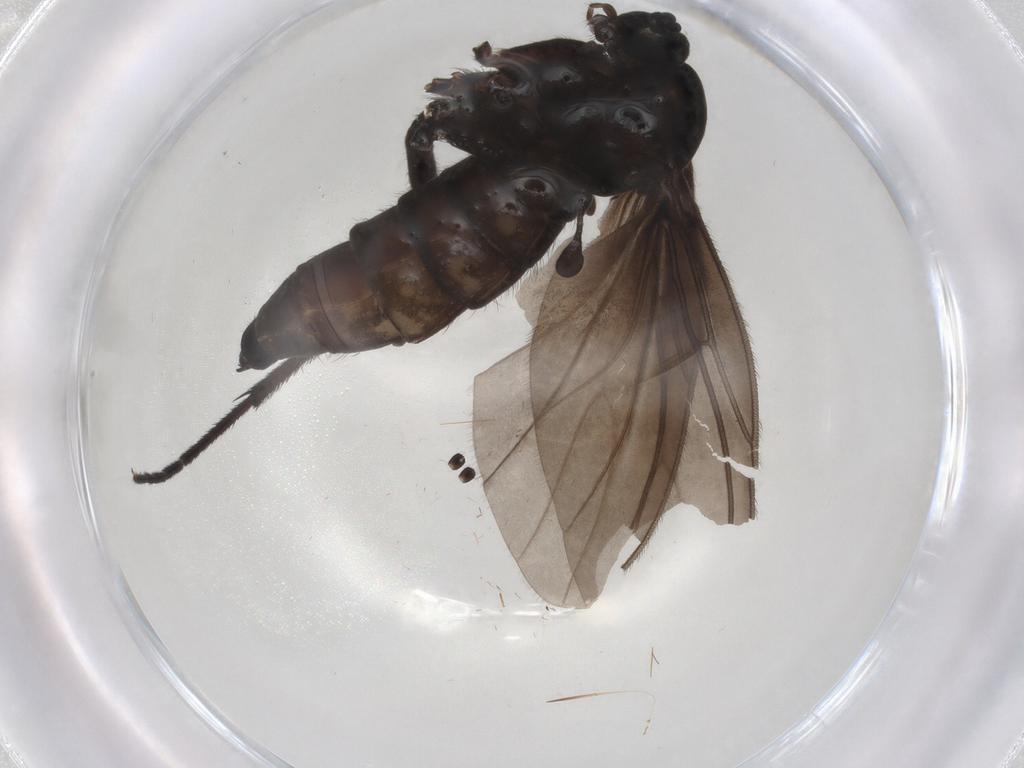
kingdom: Animalia
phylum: Arthropoda
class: Insecta
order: Diptera
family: Sciaridae
